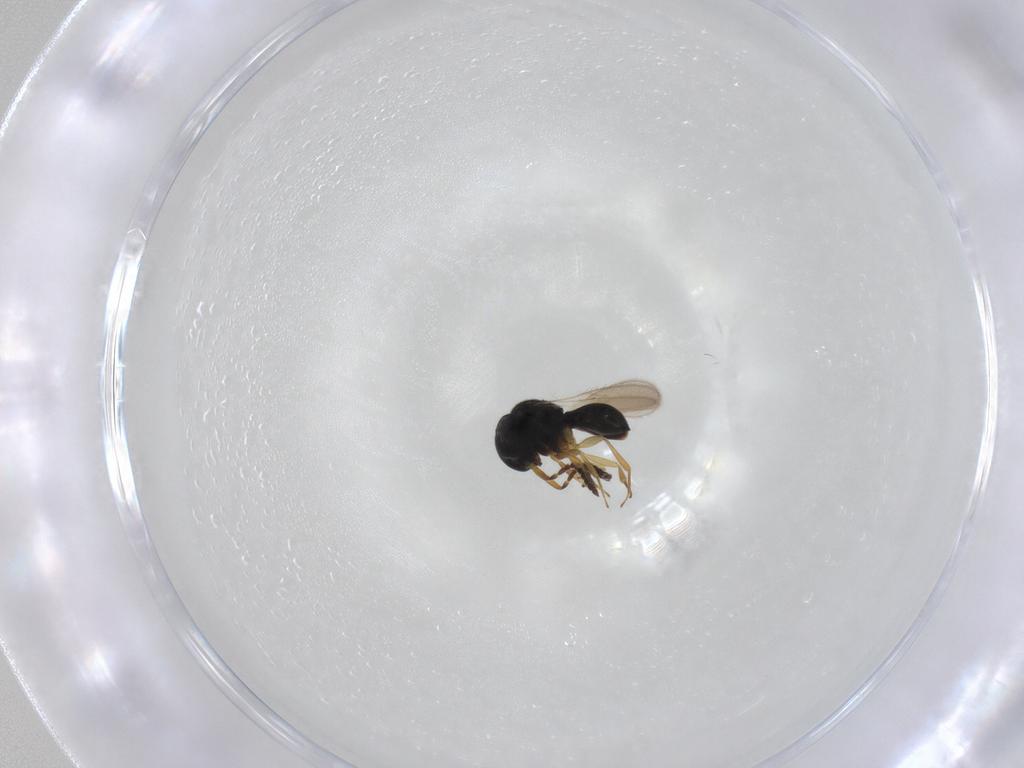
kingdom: Animalia
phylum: Arthropoda
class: Insecta
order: Hymenoptera
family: Scelionidae
